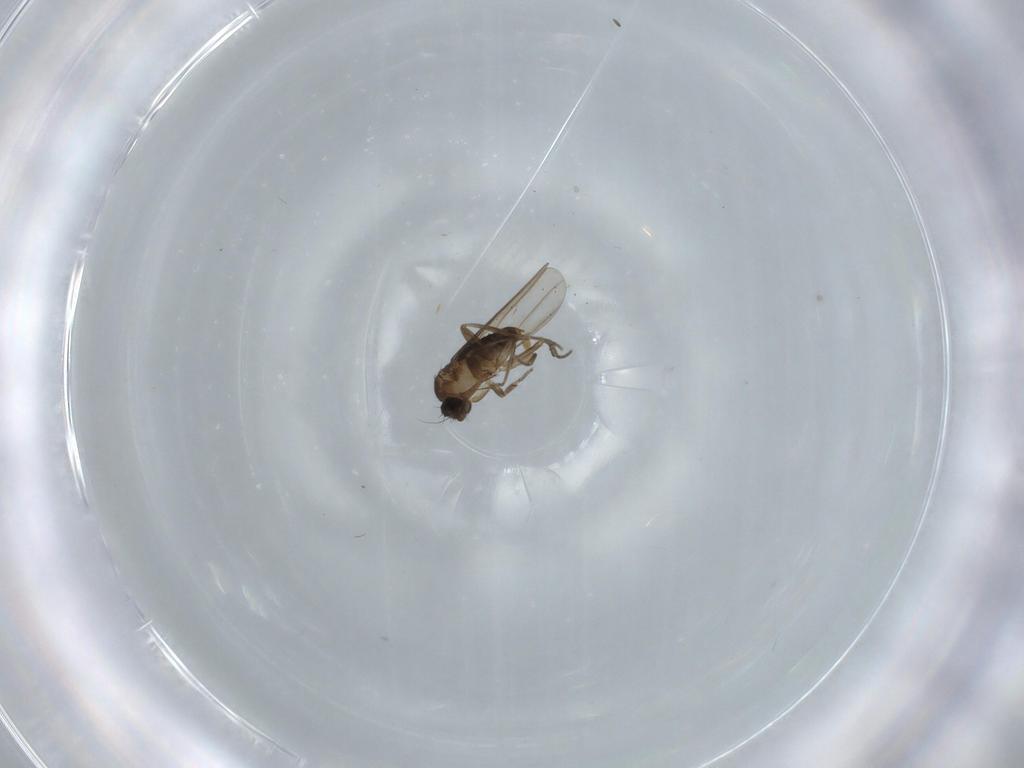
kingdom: Animalia
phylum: Arthropoda
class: Insecta
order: Diptera
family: Phoridae
